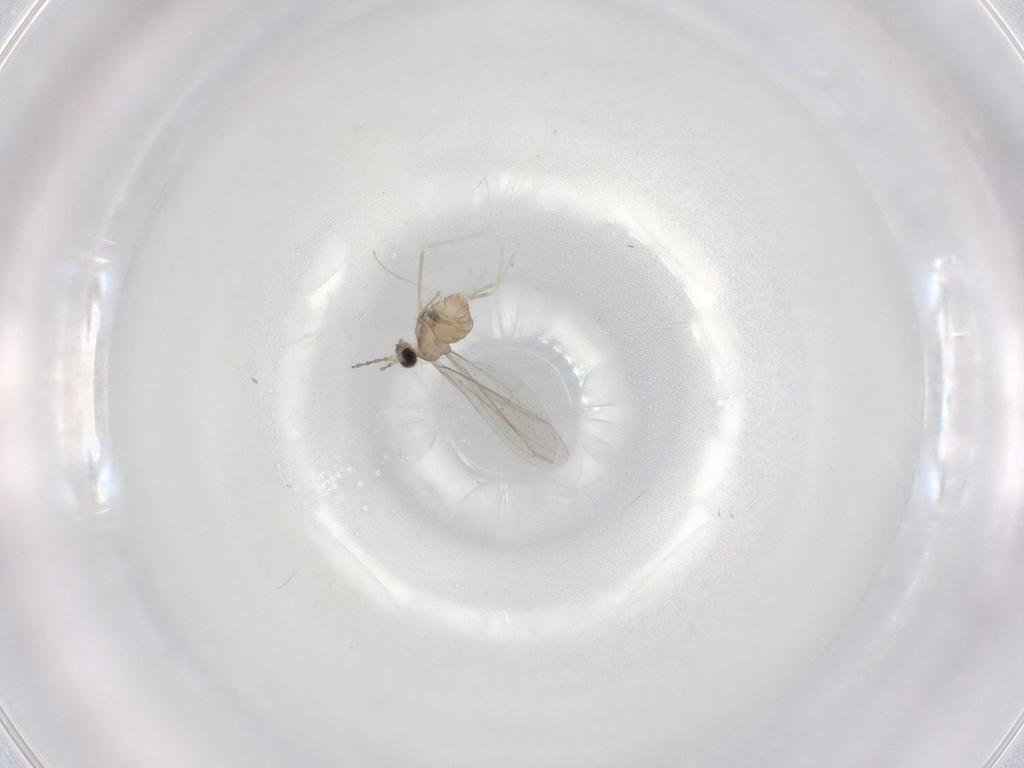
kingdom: Animalia
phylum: Arthropoda
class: Insecta
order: Diptera
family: Cecidomyiidae
